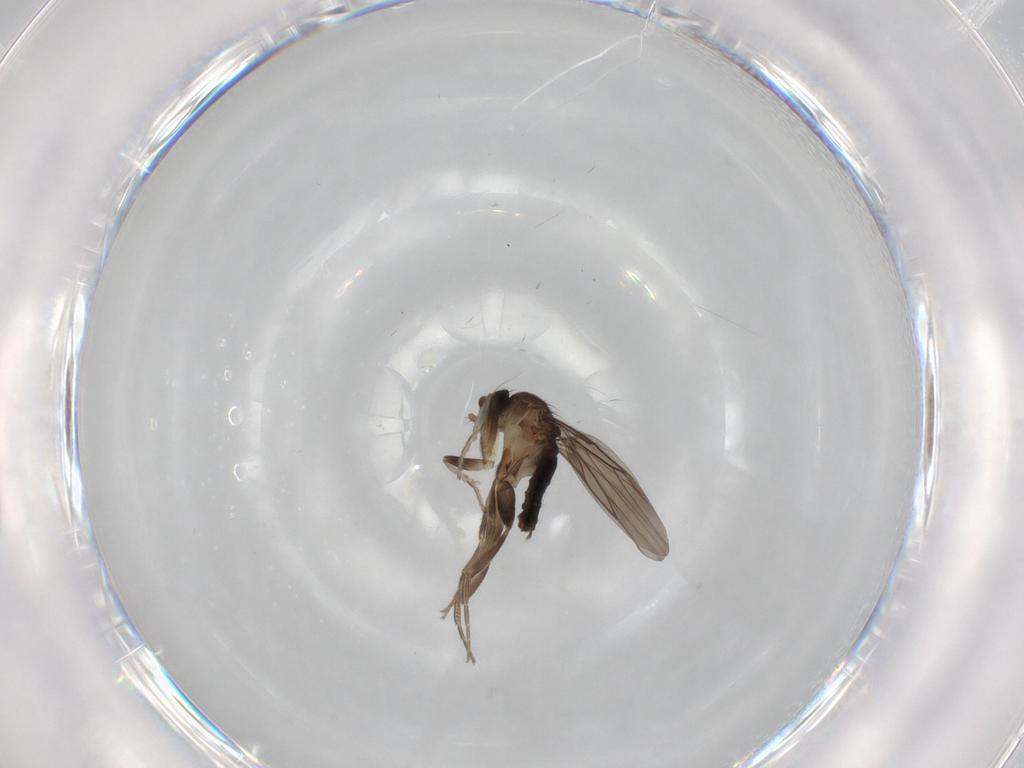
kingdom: Animalia
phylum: Arthropoda
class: Insecta
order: Diptera
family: Phoridae
